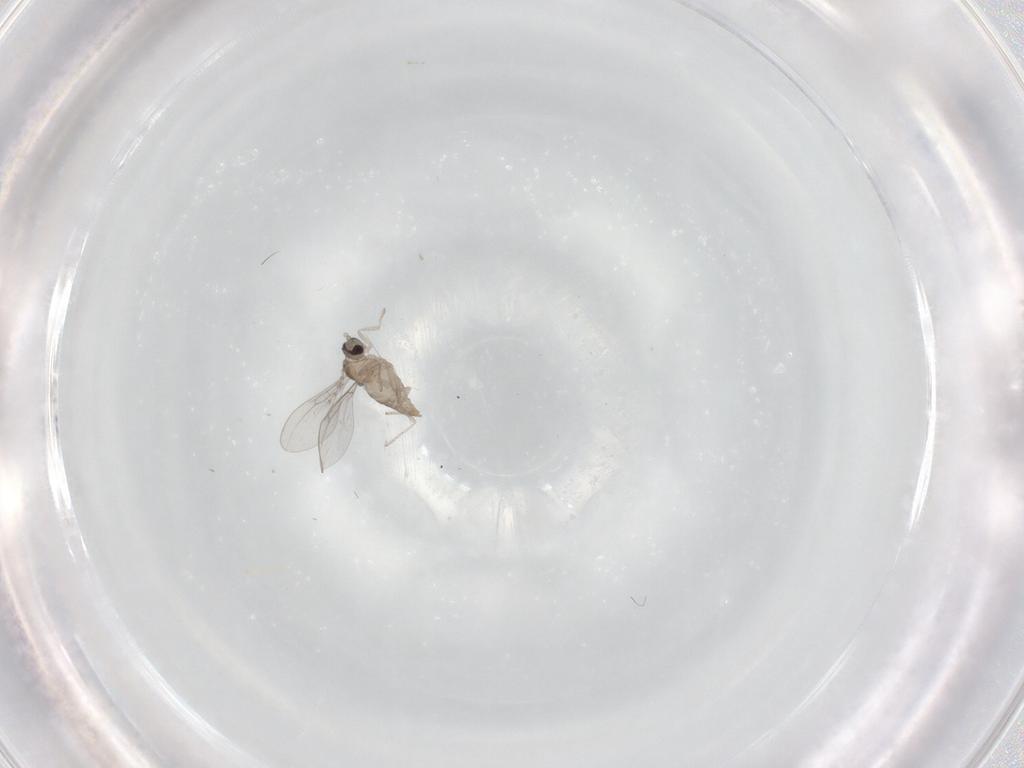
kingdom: Animalia
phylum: Arthropoda
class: Insecta
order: Diptera
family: Cecidomyiidae
